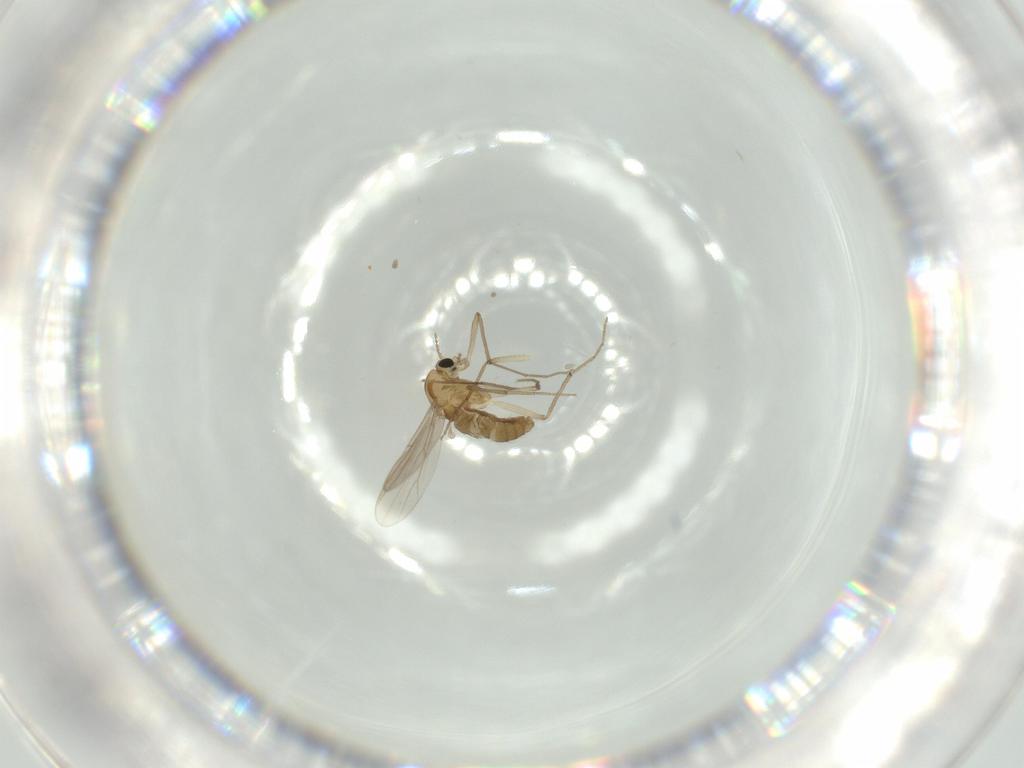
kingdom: Animalia
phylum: Arthropoda
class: Insecta
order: Diptera
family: Chironomidae
